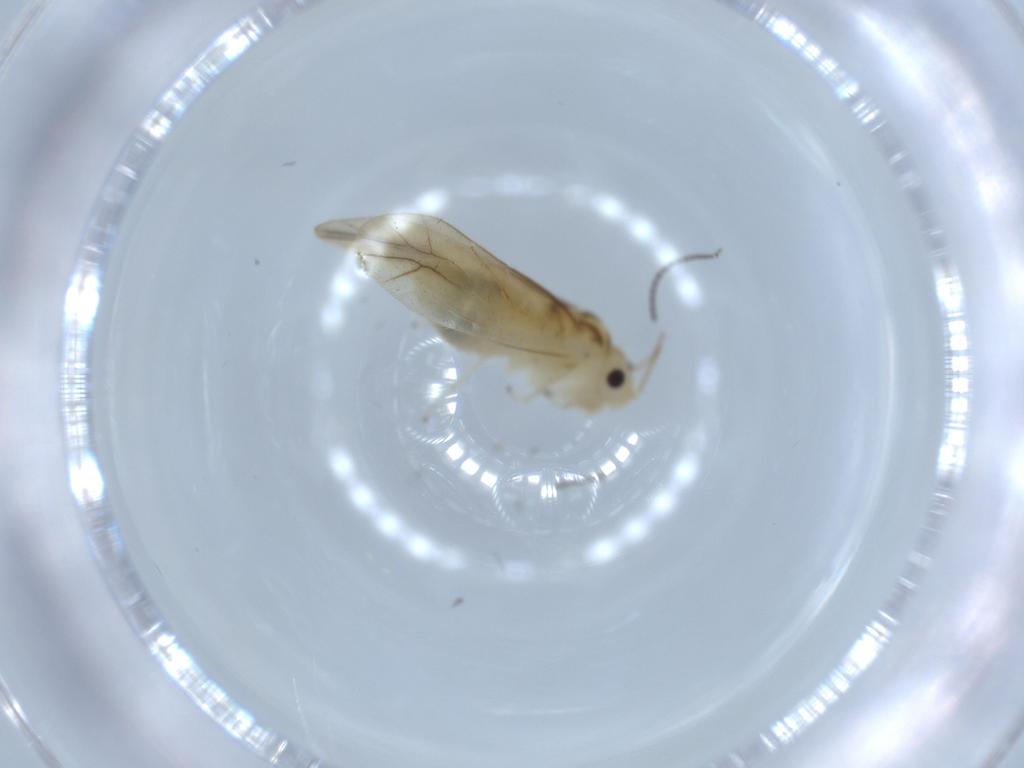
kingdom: Animalia
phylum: Arthropoda
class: Insecta
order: Psocodea
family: Caeciliusidae
